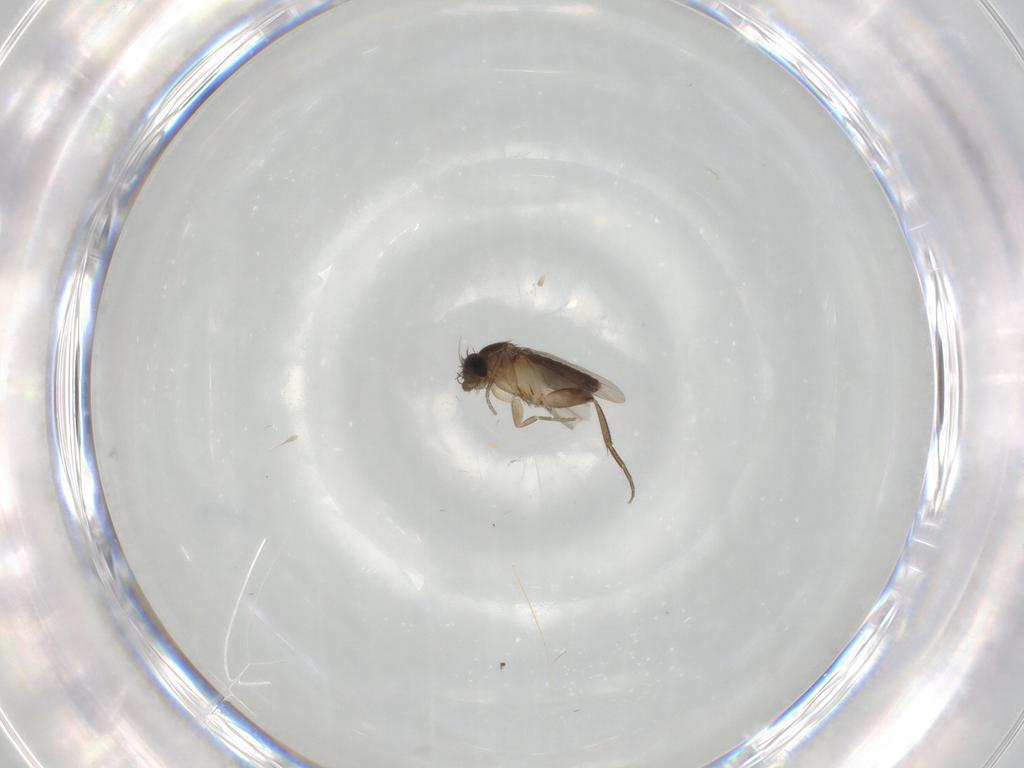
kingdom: Animalia
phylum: Arthropoda
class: Insecta
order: Diptera
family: Phoridae
